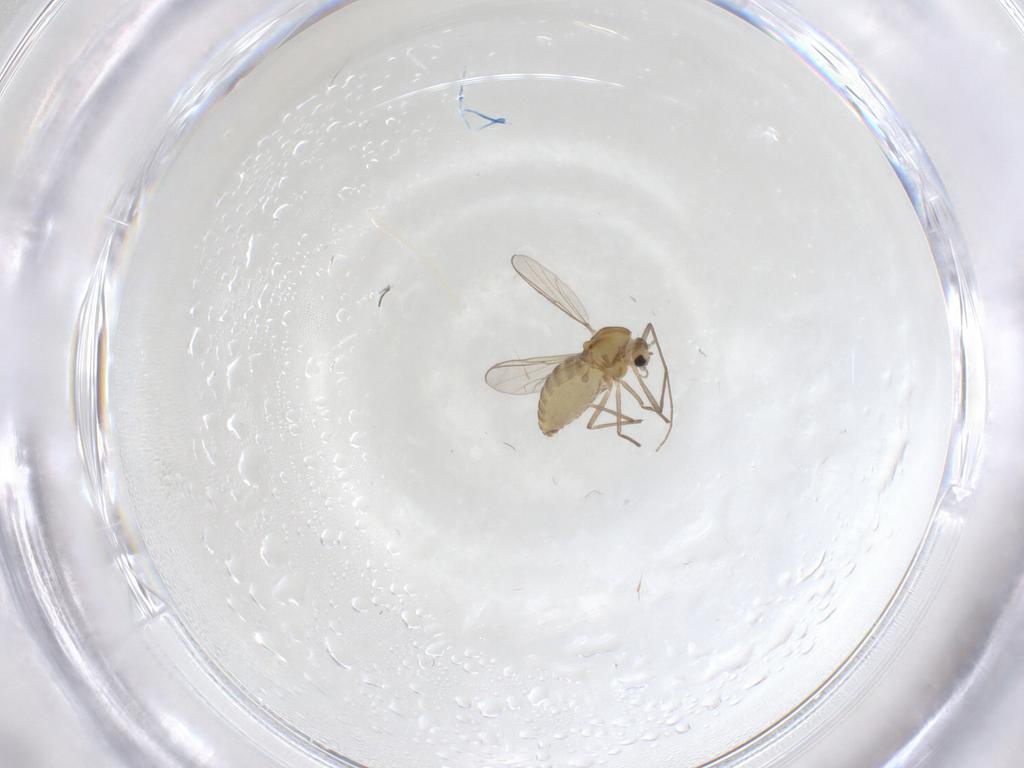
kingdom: Animalia
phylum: Arthropoda
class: Insecta
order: Diptera
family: Chironomidae
